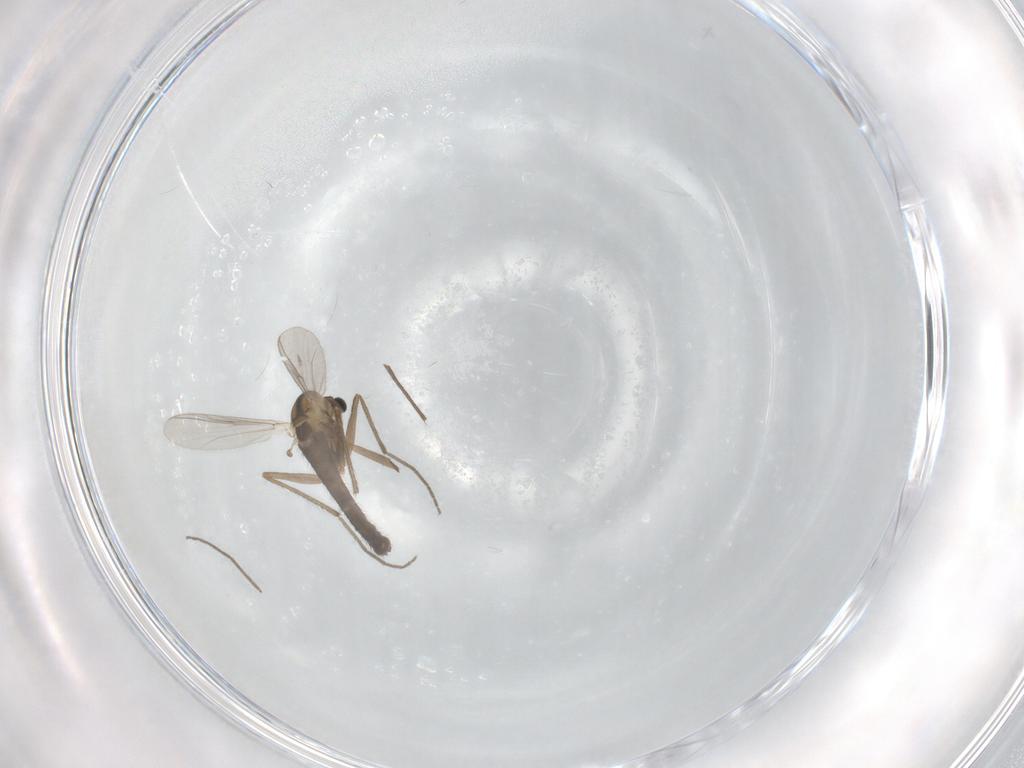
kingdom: Animalia
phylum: Arthropoda
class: Insecta
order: Diptera
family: Chironomidae
